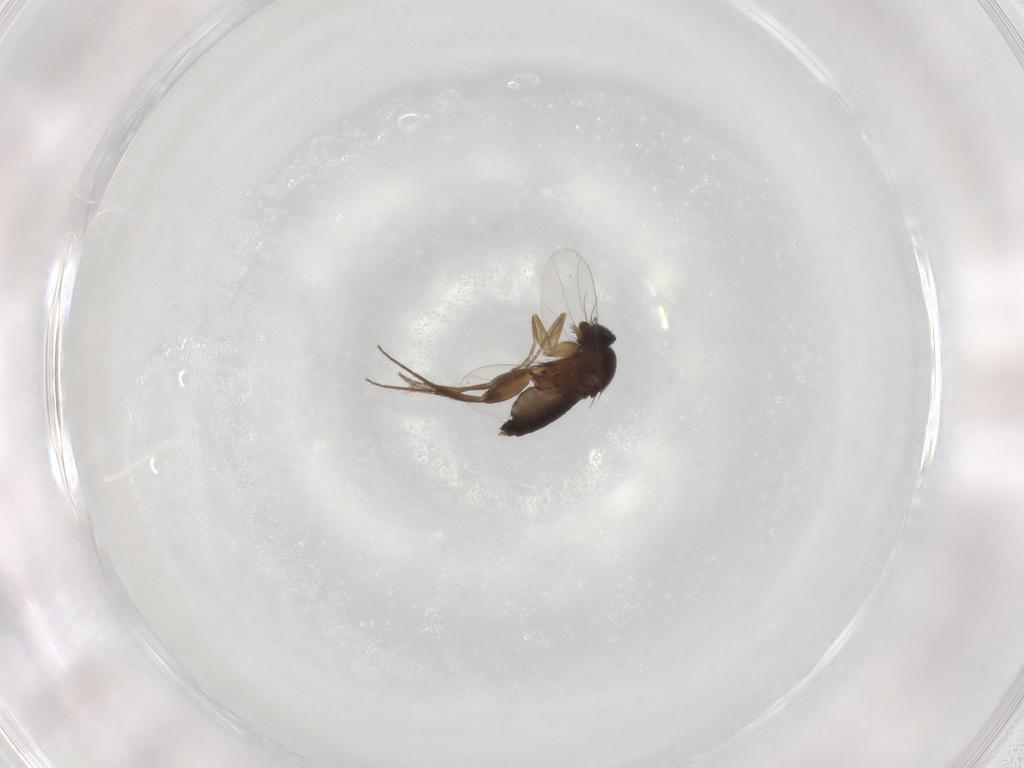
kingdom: Animalia
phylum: Arthropoda
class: Insecta
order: Diptera
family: Phoridae
